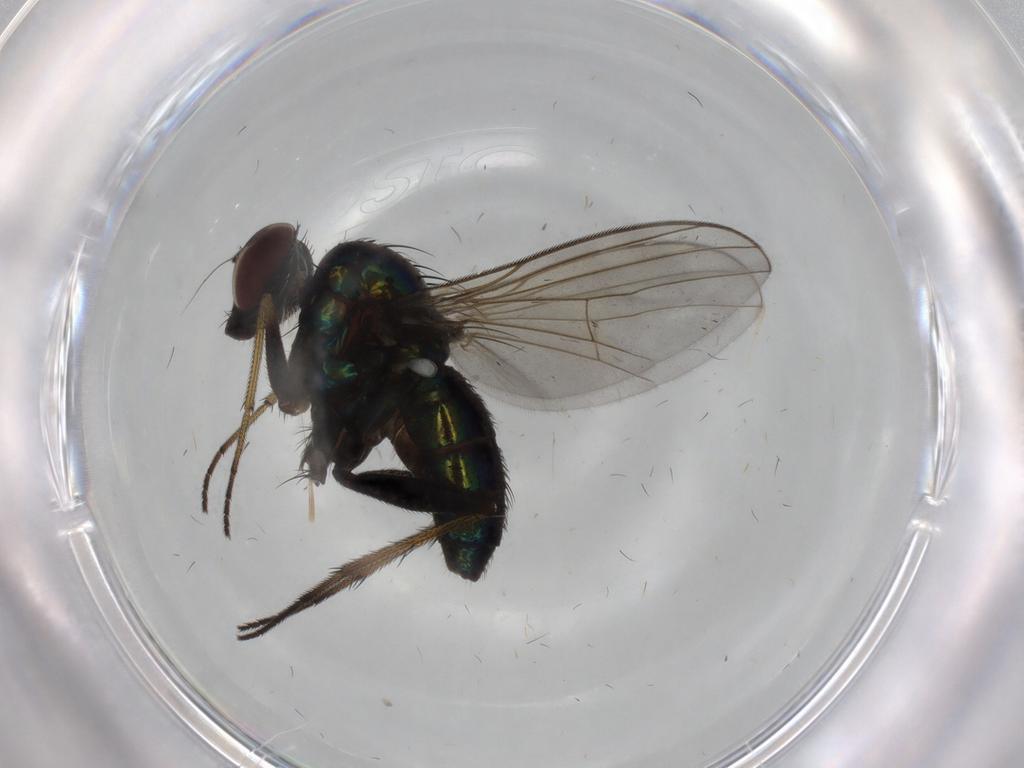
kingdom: Animalia
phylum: Arthropoda
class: Insecta
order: Diptera
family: Dolichopodidae
